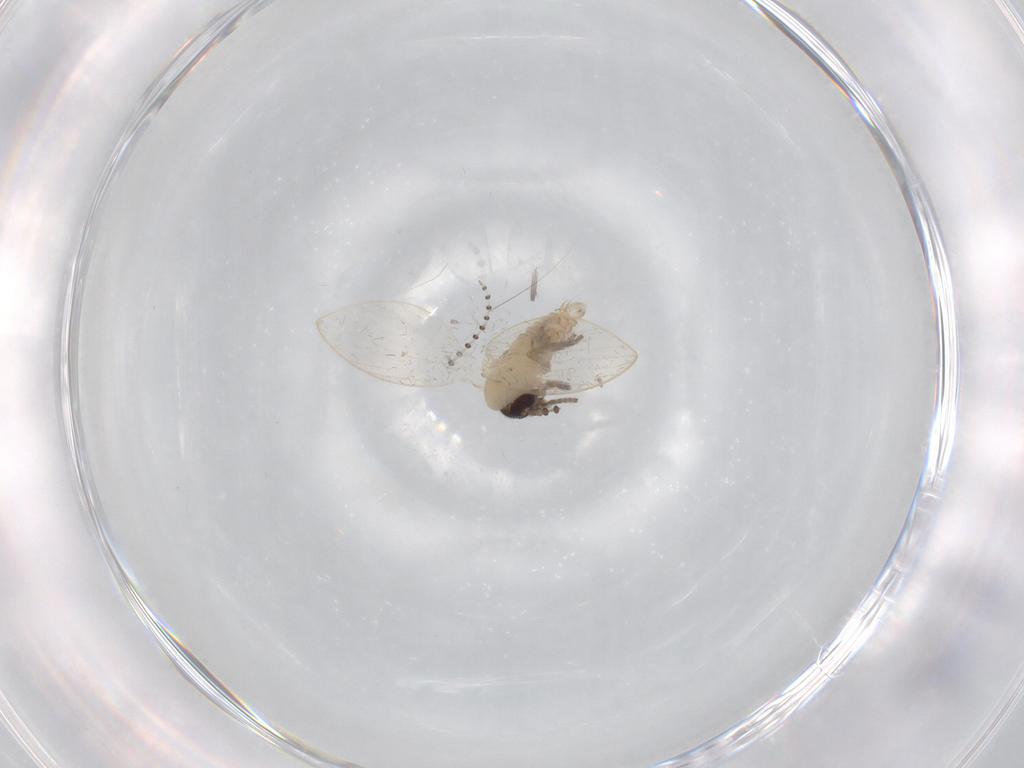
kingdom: Animalia
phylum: Arthropoda
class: Insecta
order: Diptera
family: Psychodidae
